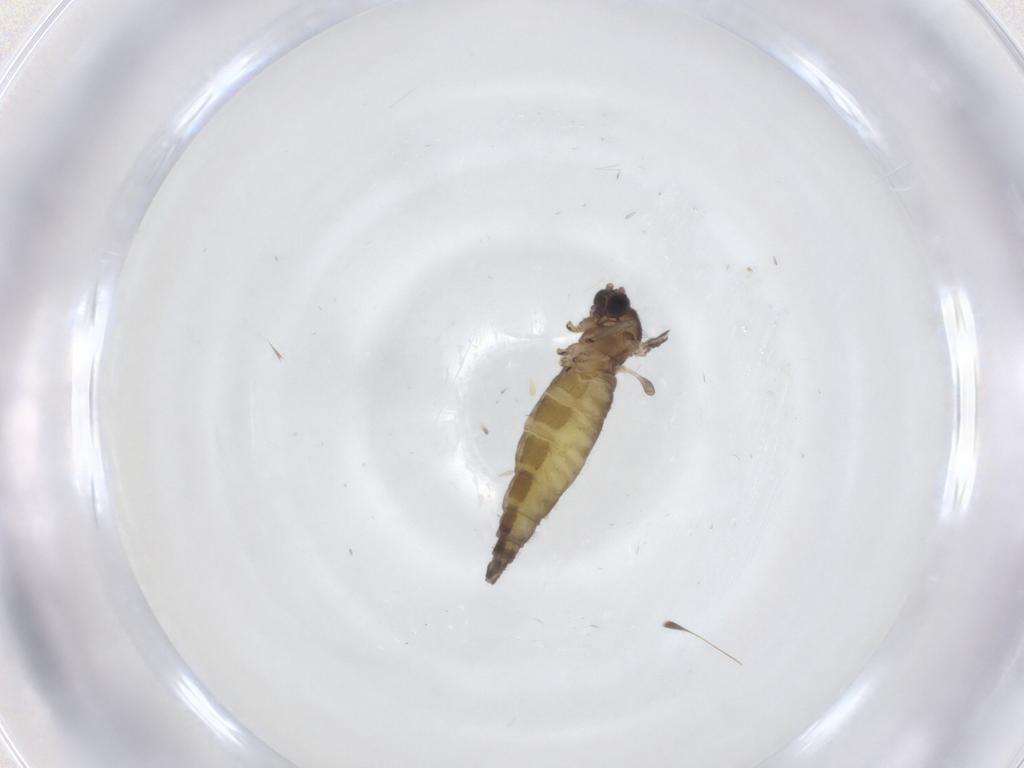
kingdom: Animalia
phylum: Arthropoda
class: Insecta
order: Diptera
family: Sciaridae
